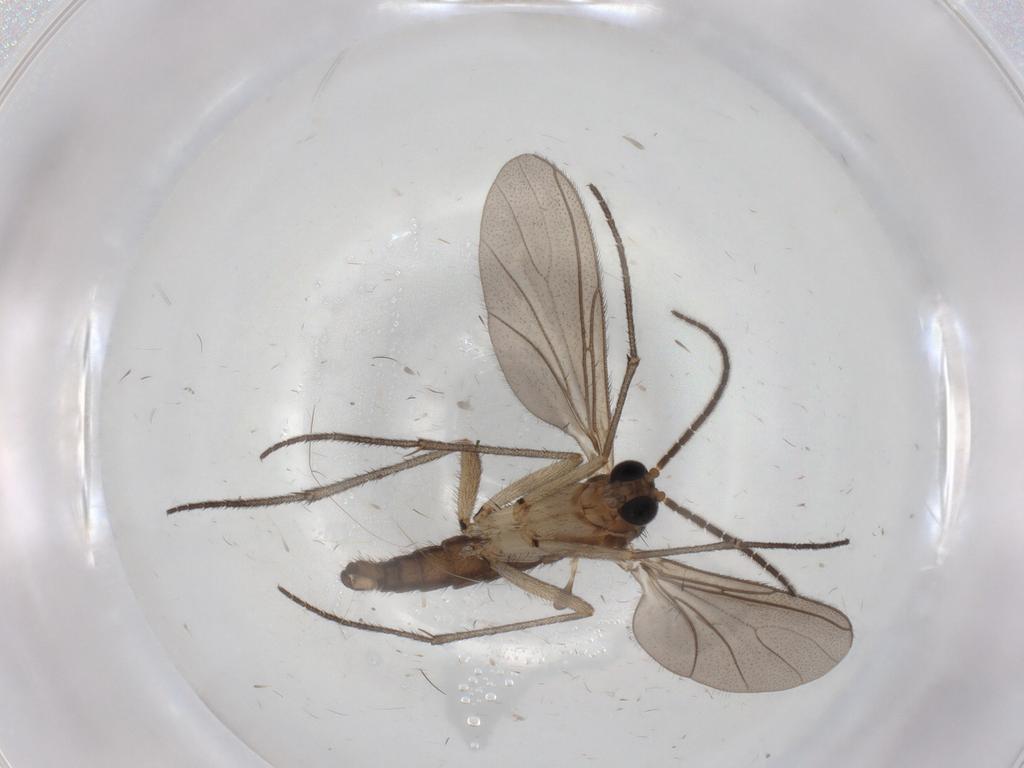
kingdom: Animalia
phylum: Arthropoda
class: Insecta
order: Diptera
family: Sciaridae
